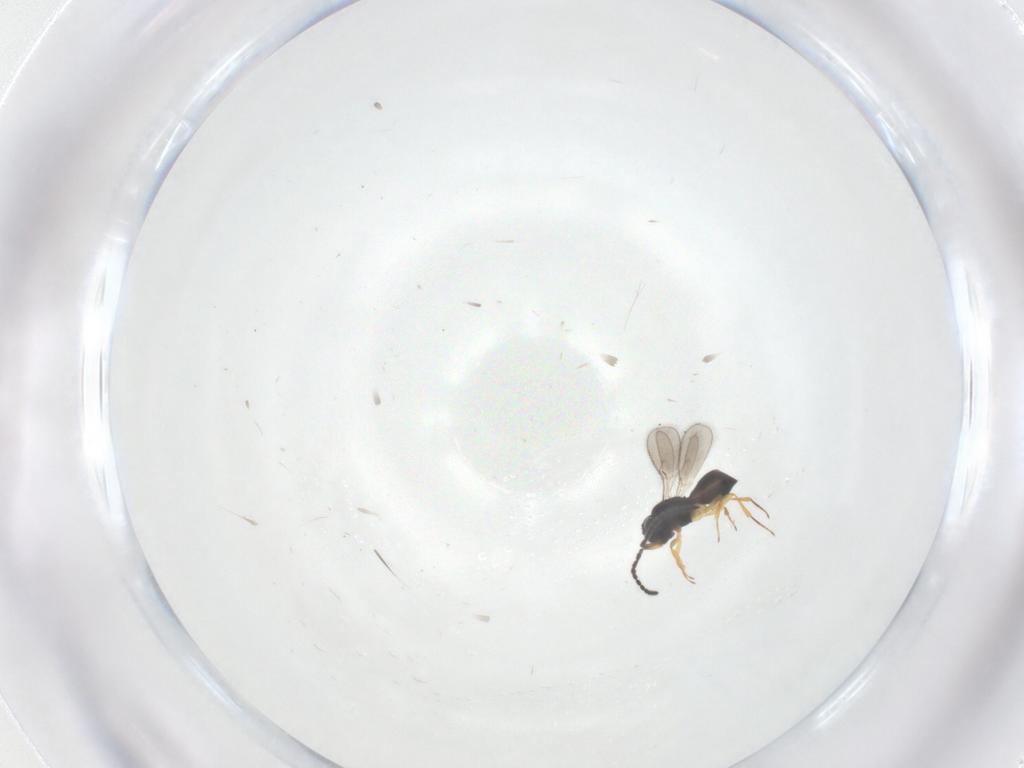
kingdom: Animalia
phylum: Arthropoda
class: Insecta
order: Hymenoptera
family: Scelionidae
